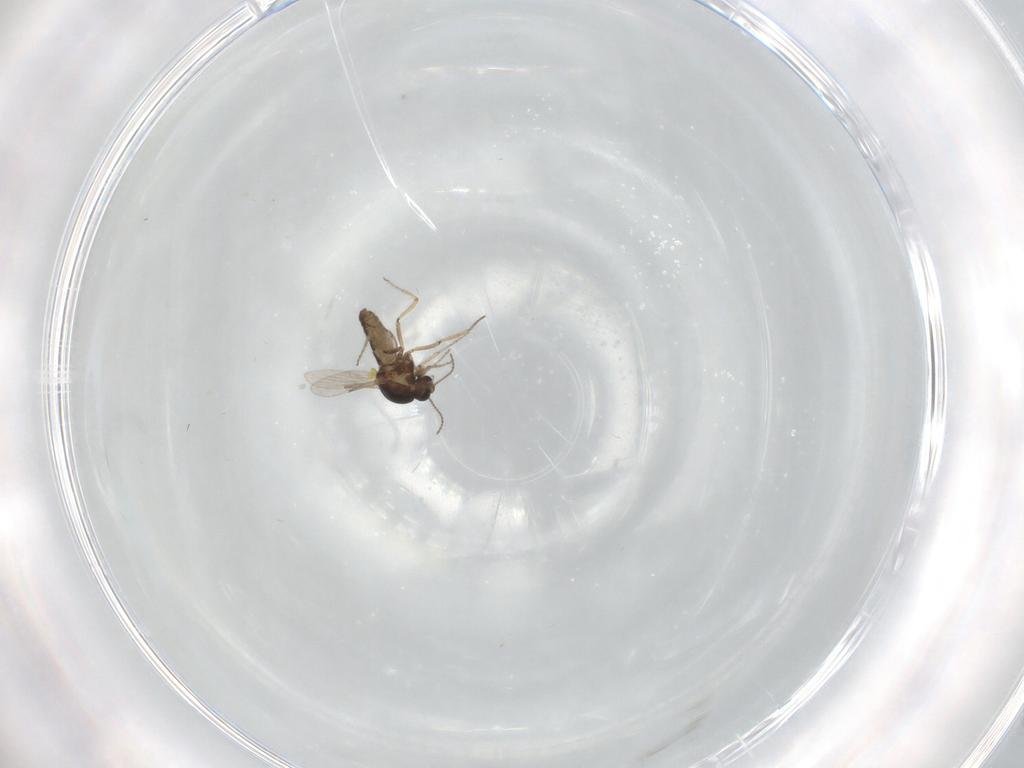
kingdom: Animalia
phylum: Arthropoda
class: Insecta
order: Diptera
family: Ceratopogonidae
